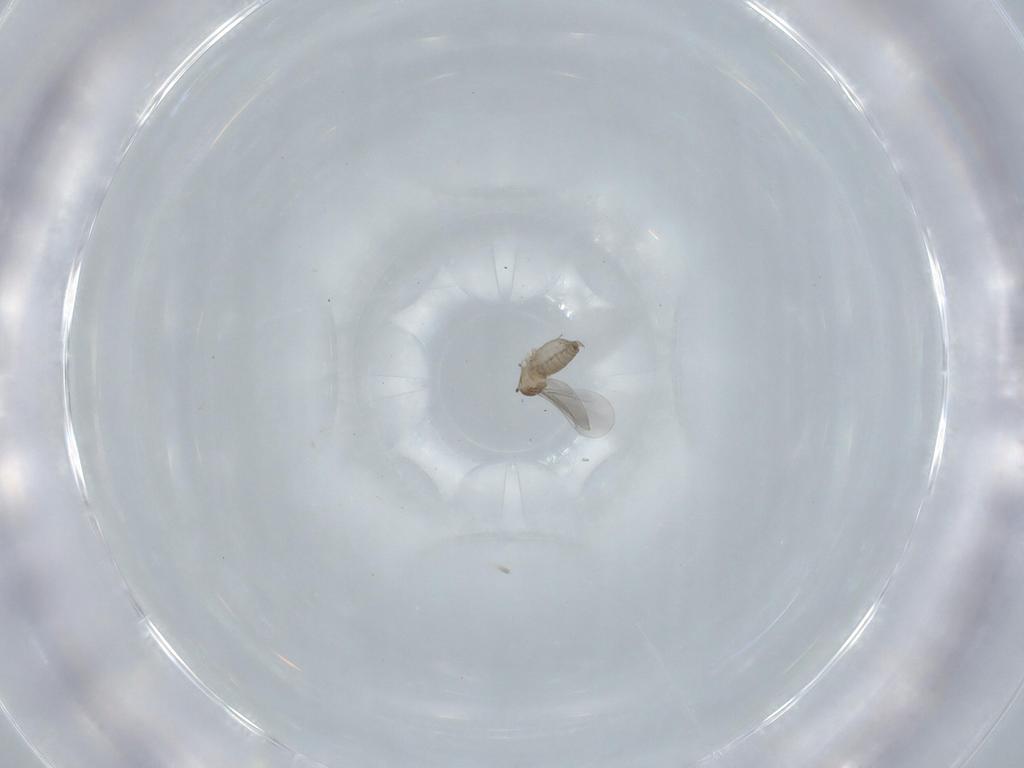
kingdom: Animalia
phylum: Arthropoda
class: Insecta
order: Diptera
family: Cecidomyiidae
